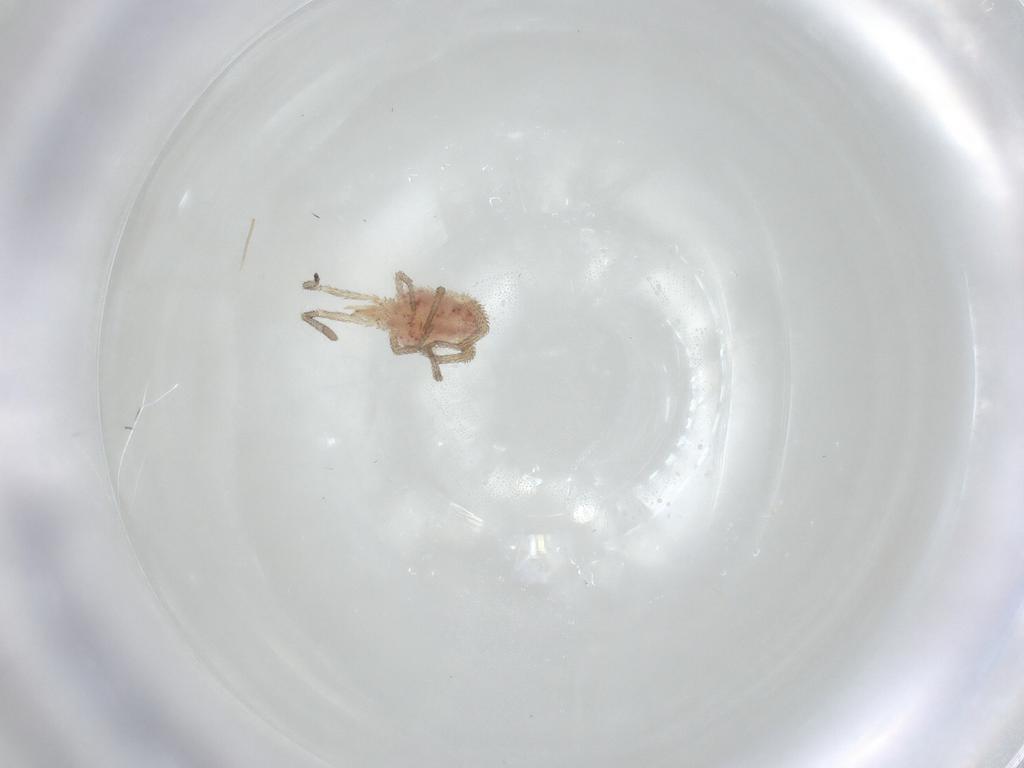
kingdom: Animalia
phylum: Arthropoda
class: Arachnida
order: Trombidiformes
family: Smarididae
